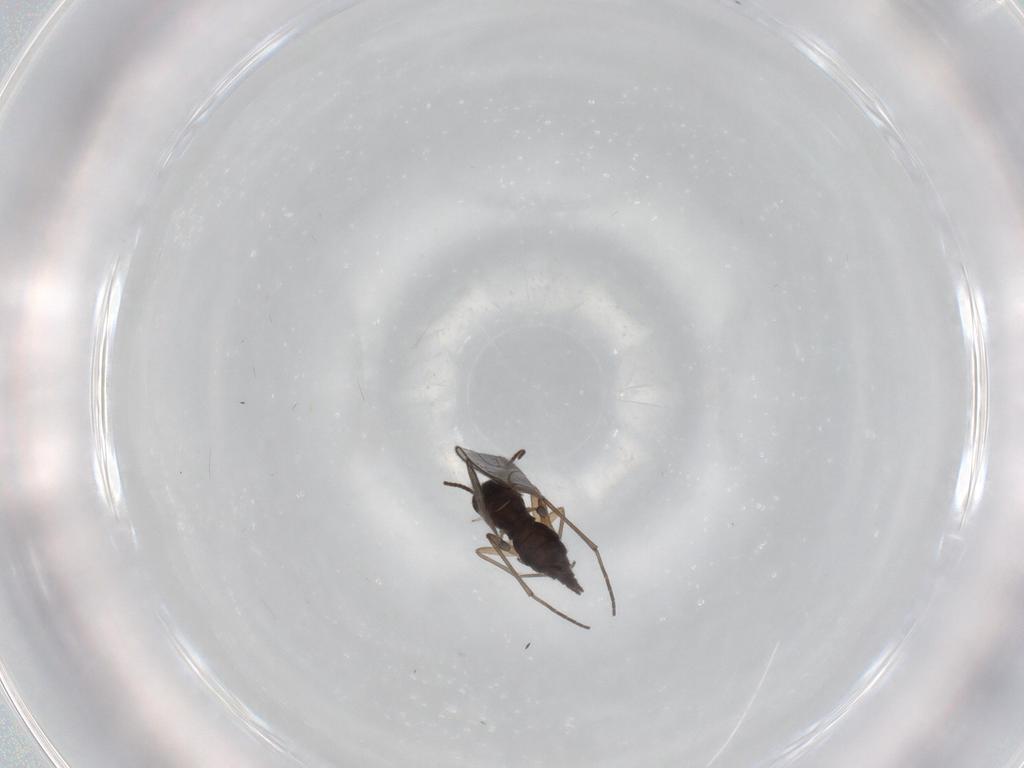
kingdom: Animalia
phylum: Arthropoda
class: Insecta
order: Diptera
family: Sciaridae
